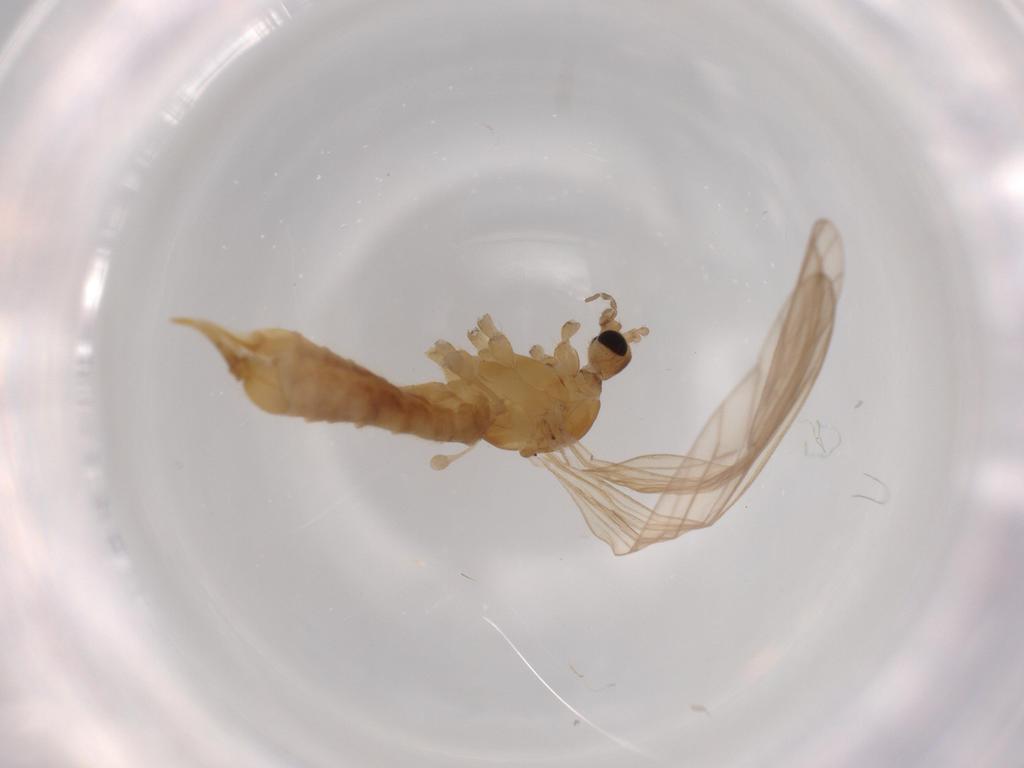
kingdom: Animalia
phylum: Arthropoda
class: Insecta
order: Diptera
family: Limoniidae
